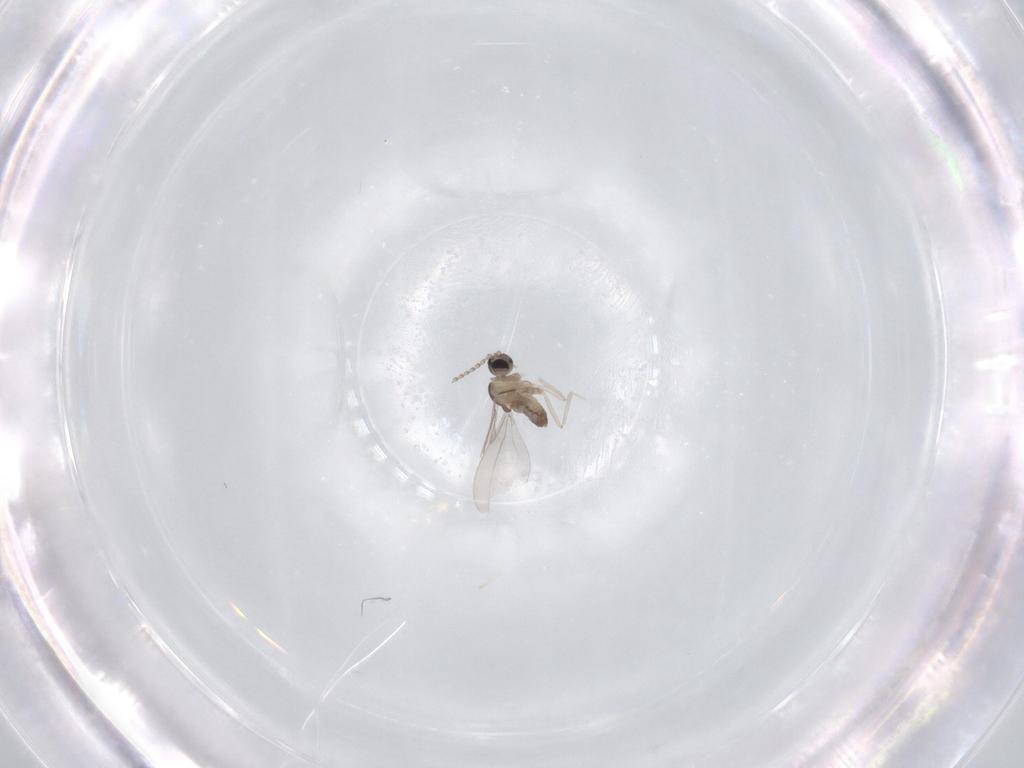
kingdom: Animalia
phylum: Arthropoda
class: Insecta
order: Diptera
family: Cecidomyiidae
